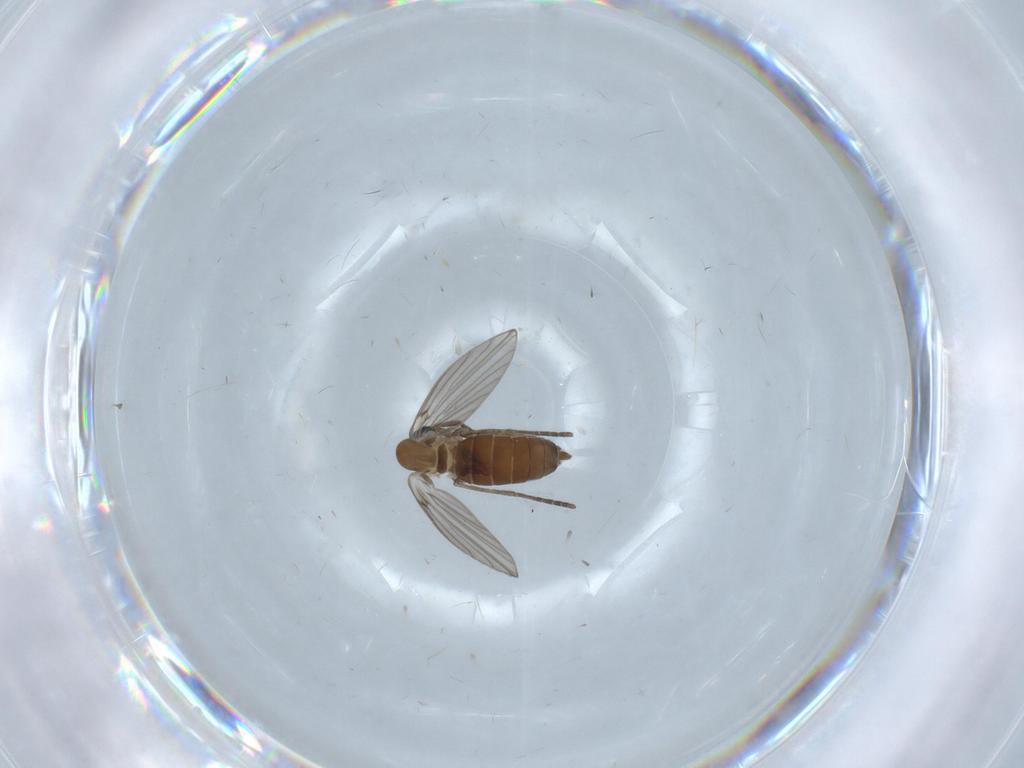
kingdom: Animalia
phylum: Arthropoda
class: Insecta
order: Diptera
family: Psychodidae
